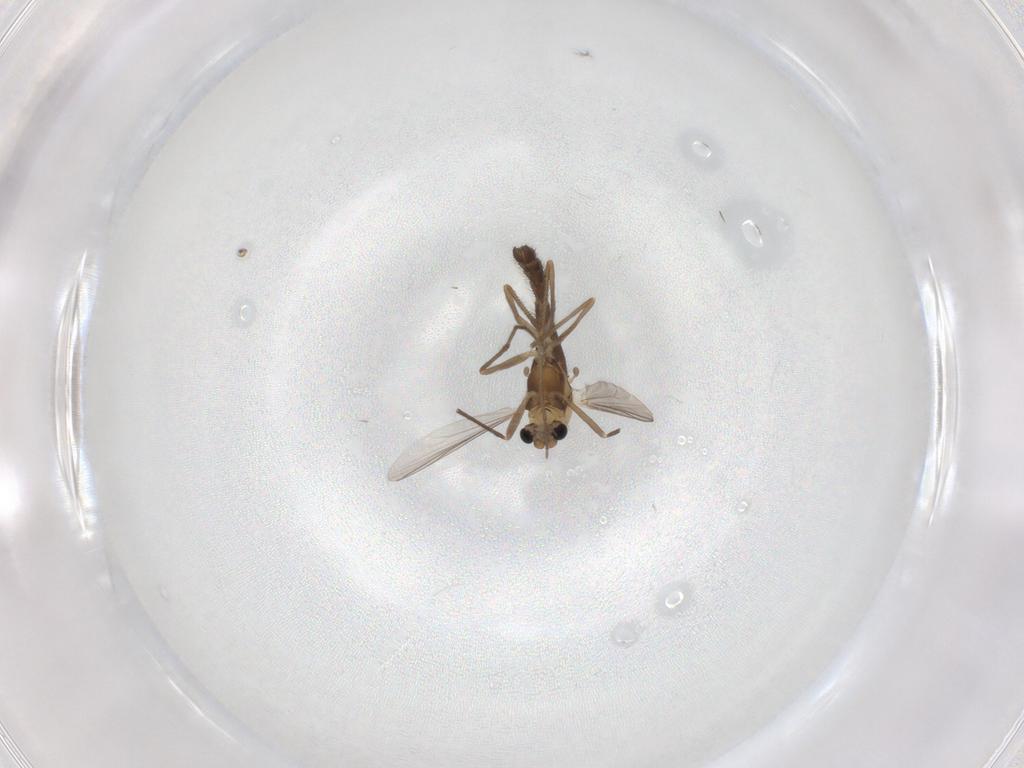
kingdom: Animalia
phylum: Arthropoda
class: Insecta
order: Diptera
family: Chironomidae
